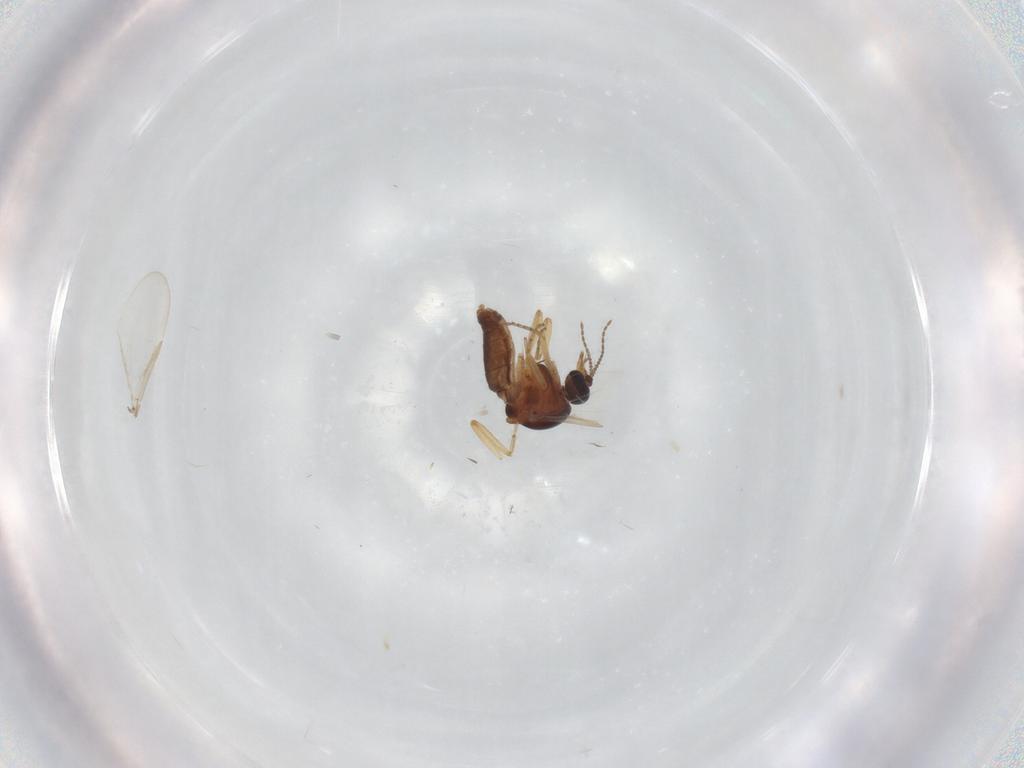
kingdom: Animalia
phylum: Arthropoda
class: Insecta
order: Diptera
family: Ceratopogonidae
